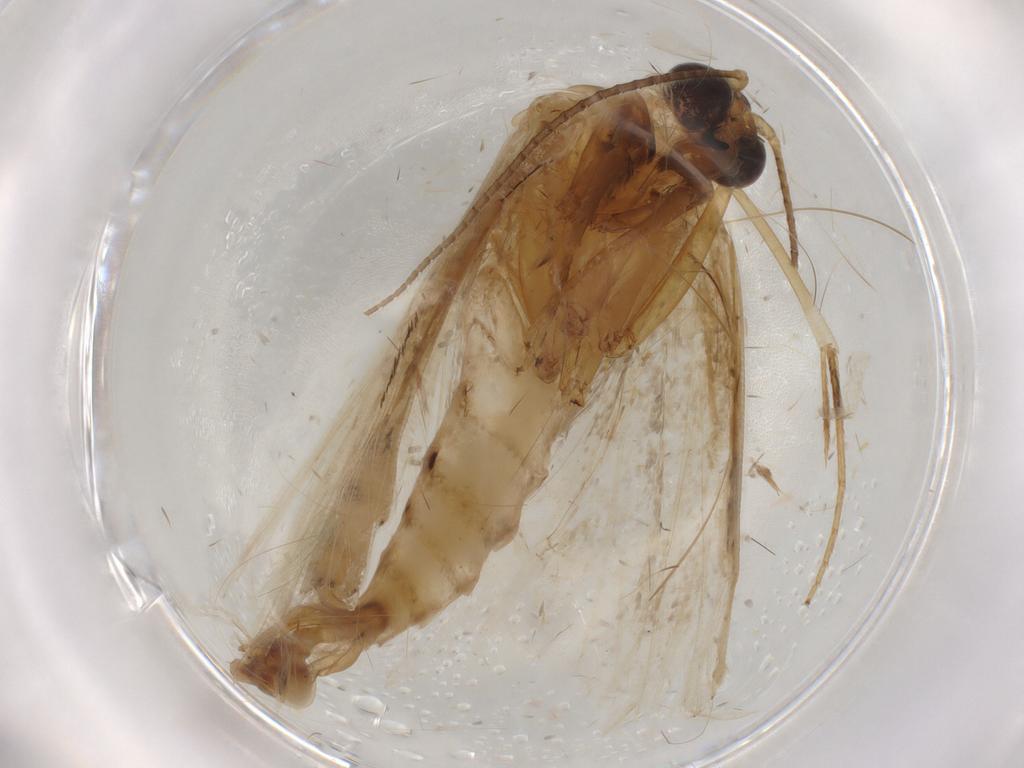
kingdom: Animalia
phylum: Arthropoda
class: Insecta
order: Lepidoptera
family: Erebidae
